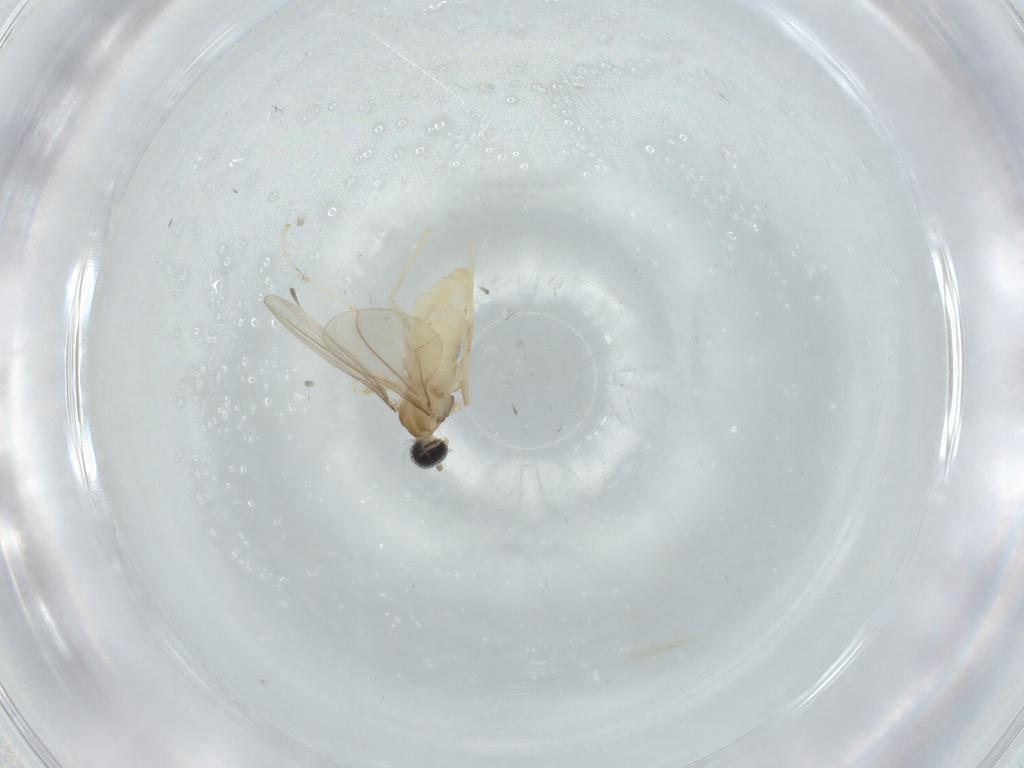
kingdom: Animalia
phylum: Arthropoda
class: Insecta
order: Diptera
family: Cecidomyiidae
